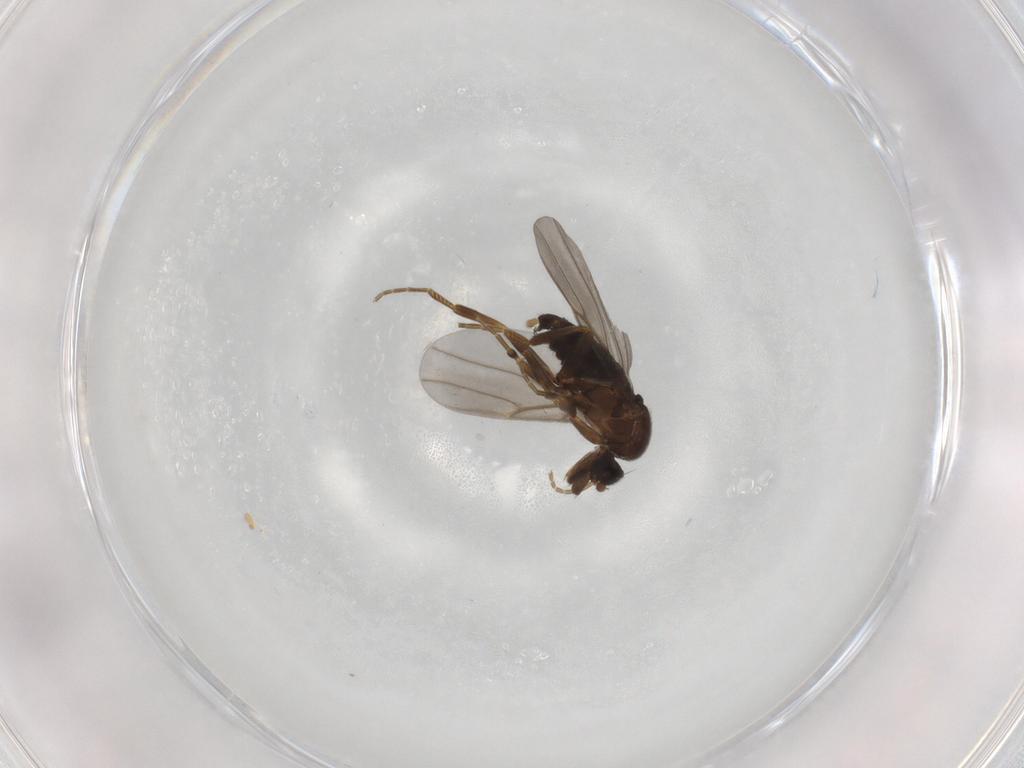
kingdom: Animalia
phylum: Arthropoda
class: Insecta
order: Diptera
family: Phoridae
